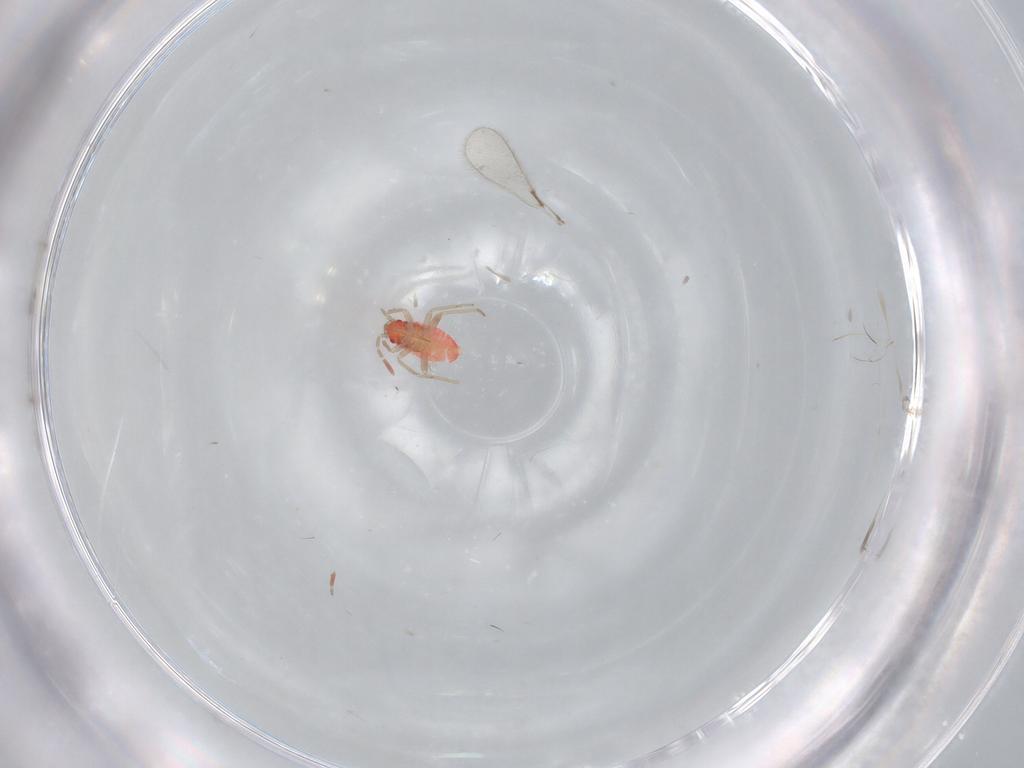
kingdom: Animalia
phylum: Arthropoda
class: Insecta
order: Hemiptera
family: Miridae
